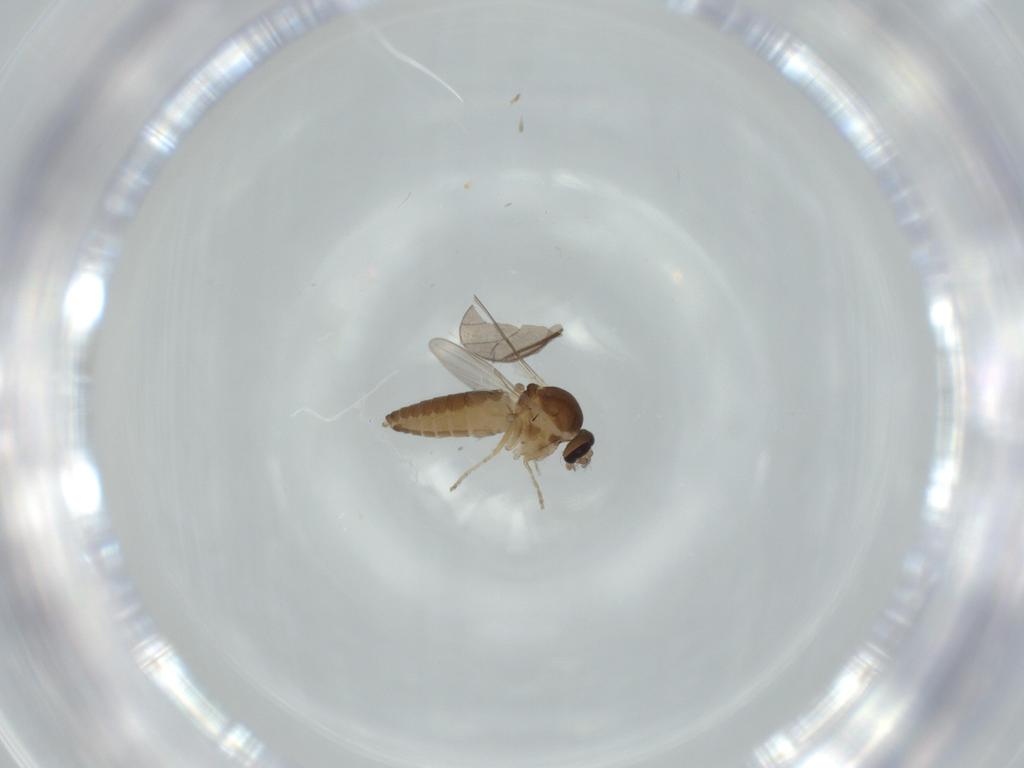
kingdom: Animalia
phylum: Arthropoda
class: Insecta
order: Diptera
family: Ceratopogonidae
